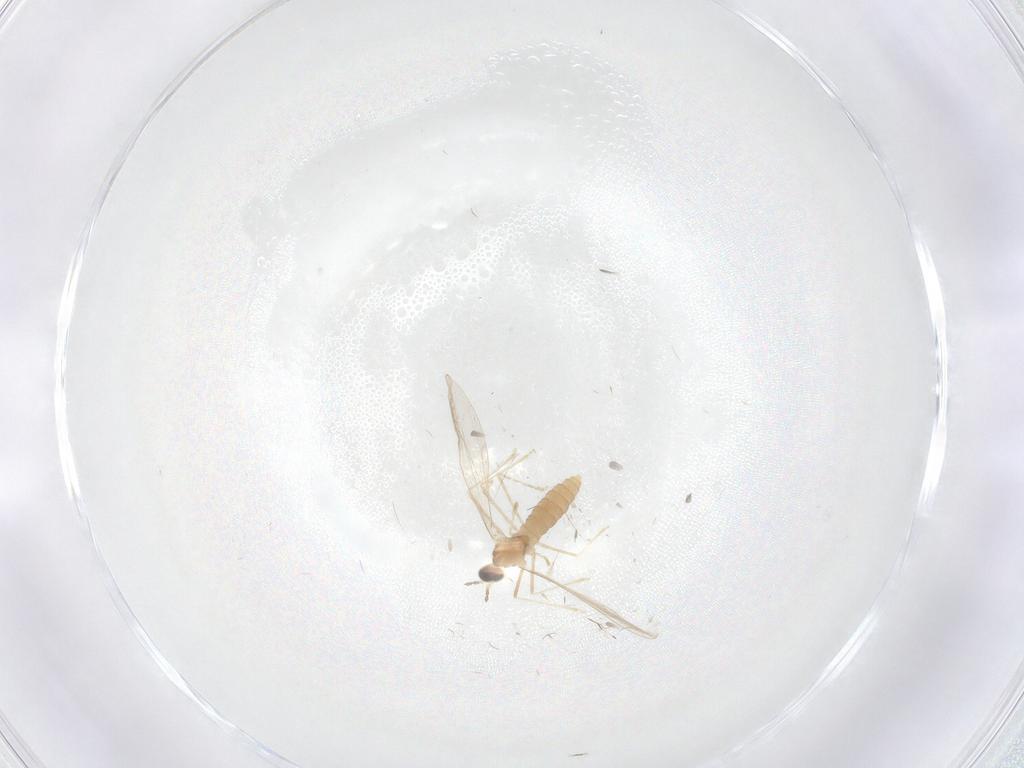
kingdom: Animalia
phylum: Arthropoda
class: Insecta
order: Diptera
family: Cecidomyiidae
